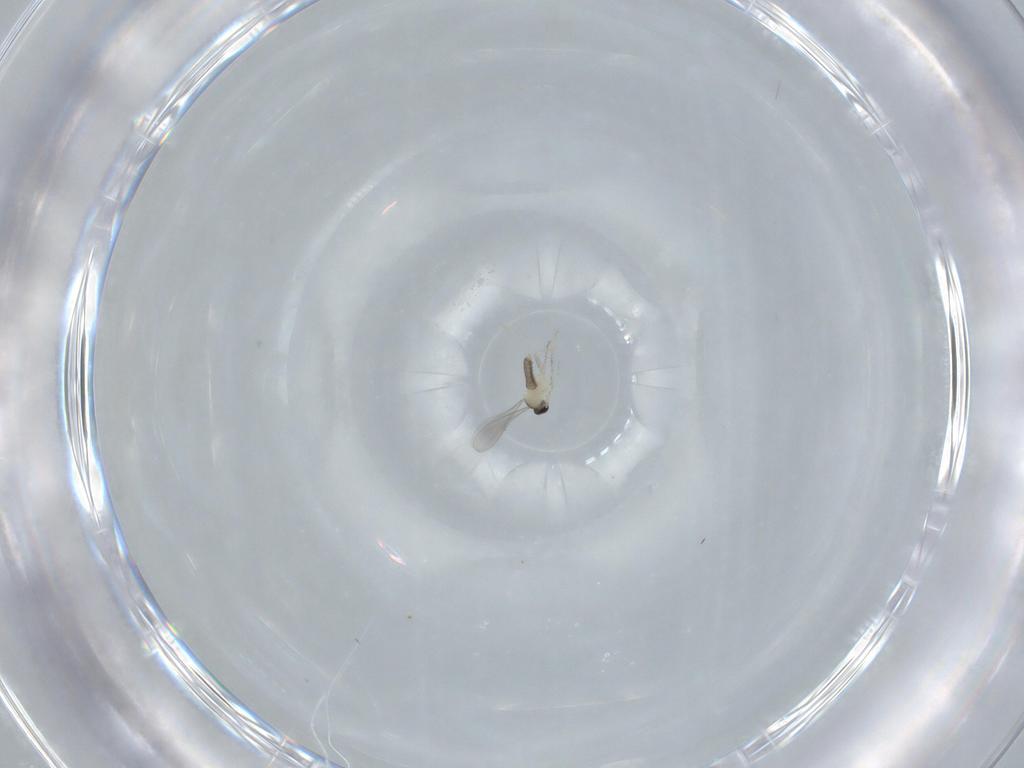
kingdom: Animalia
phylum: Arthropoda
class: Insecta
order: Diptera
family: Cecidomyiidae
